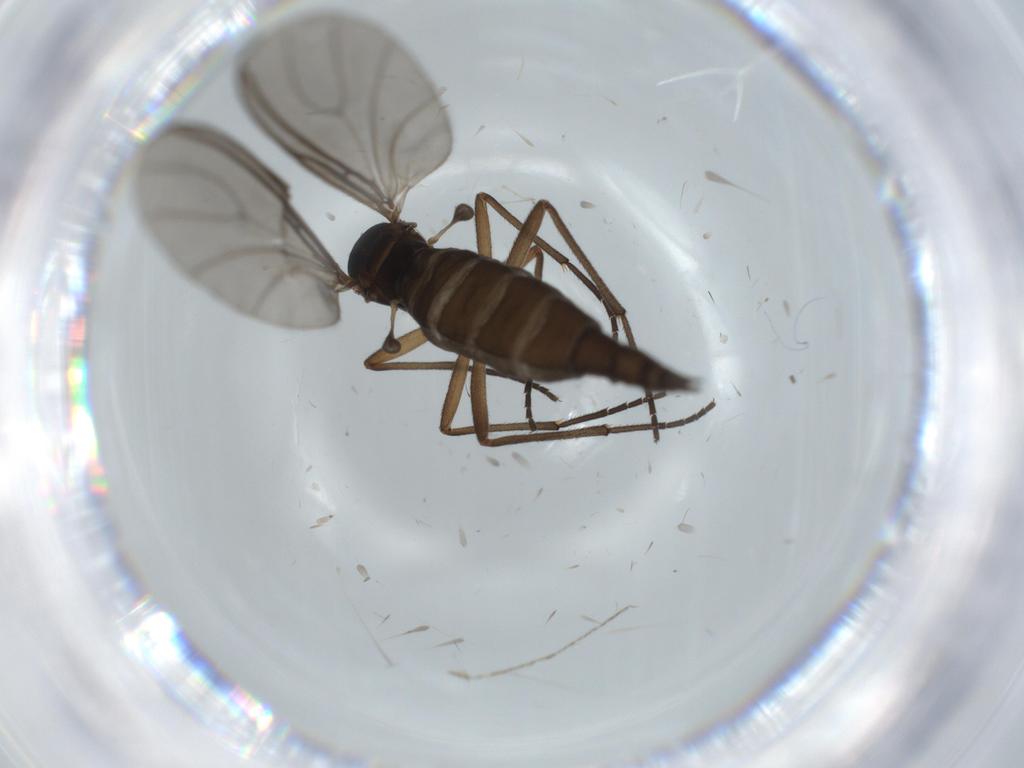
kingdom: Animalia
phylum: Arthropoda
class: Insecta
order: Diptera
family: Sciaridae
